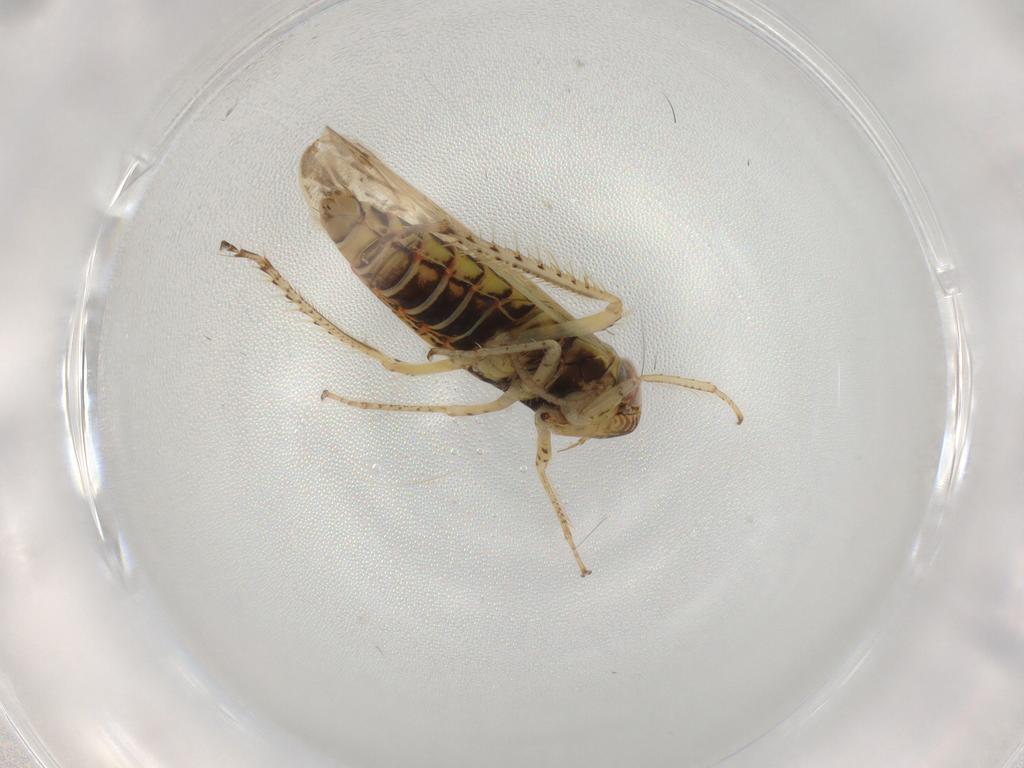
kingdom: Animalia
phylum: Arthropoda
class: Insecta
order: Hemiptera
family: Cicadellidae
